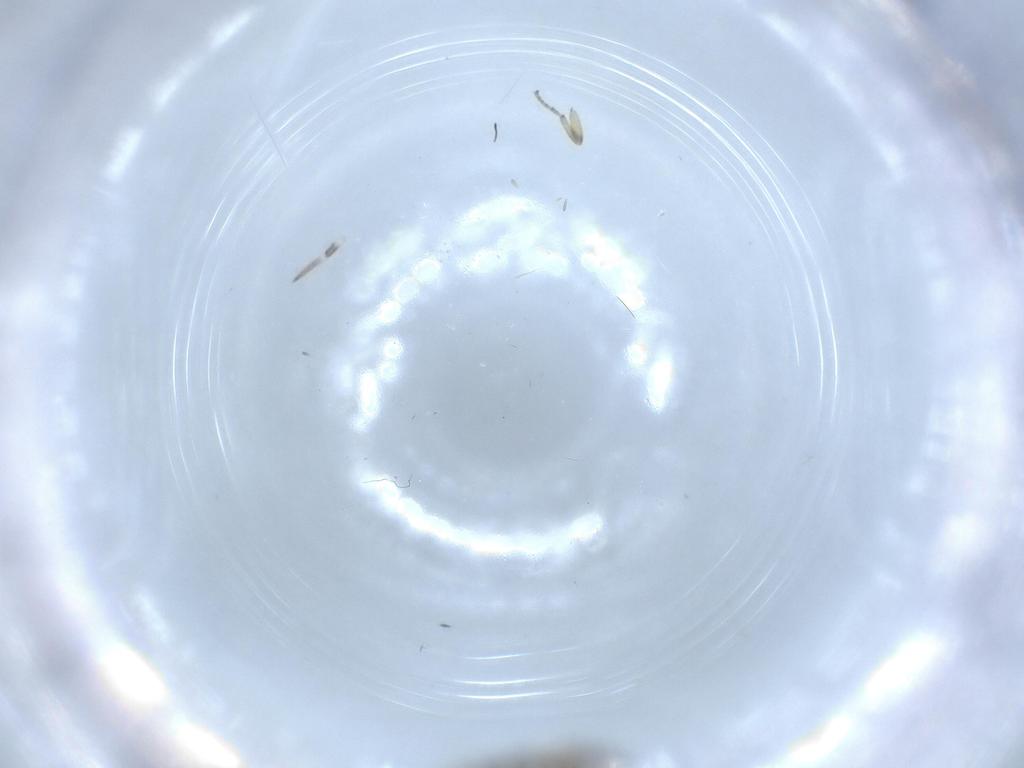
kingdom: Animalia
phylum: Arthropoda
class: Insecta
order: Diptera
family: Scatopsidae
